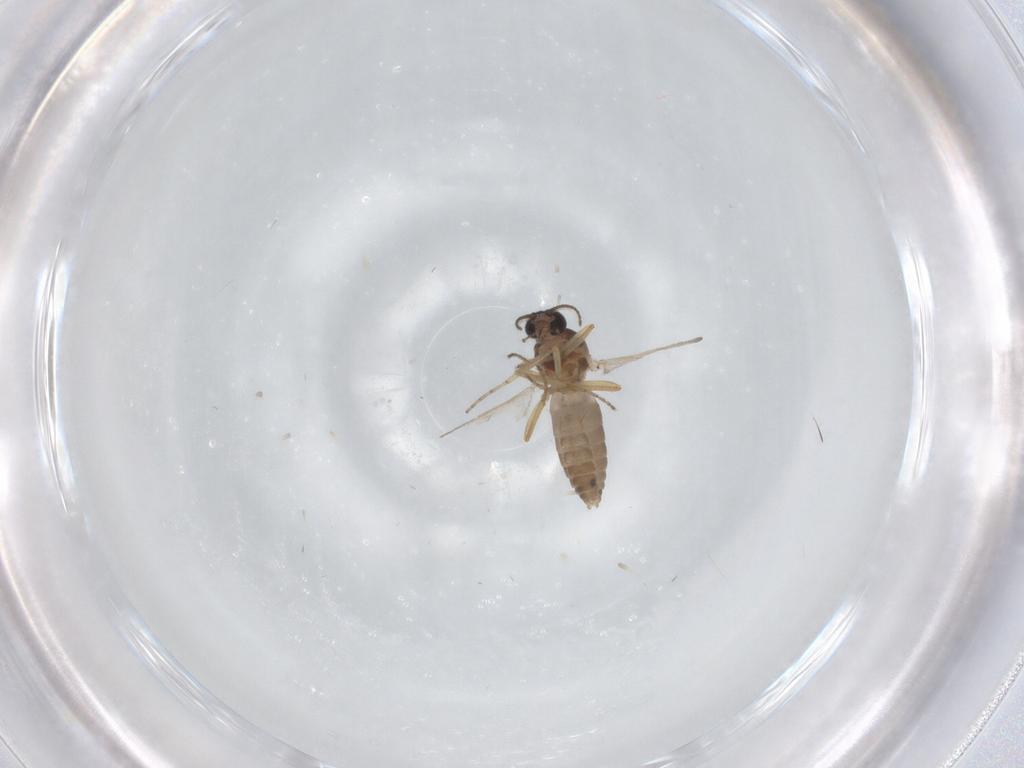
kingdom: Animalia
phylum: Arthropoda
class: Insecta
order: Diptera
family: Ceratopogonidae
